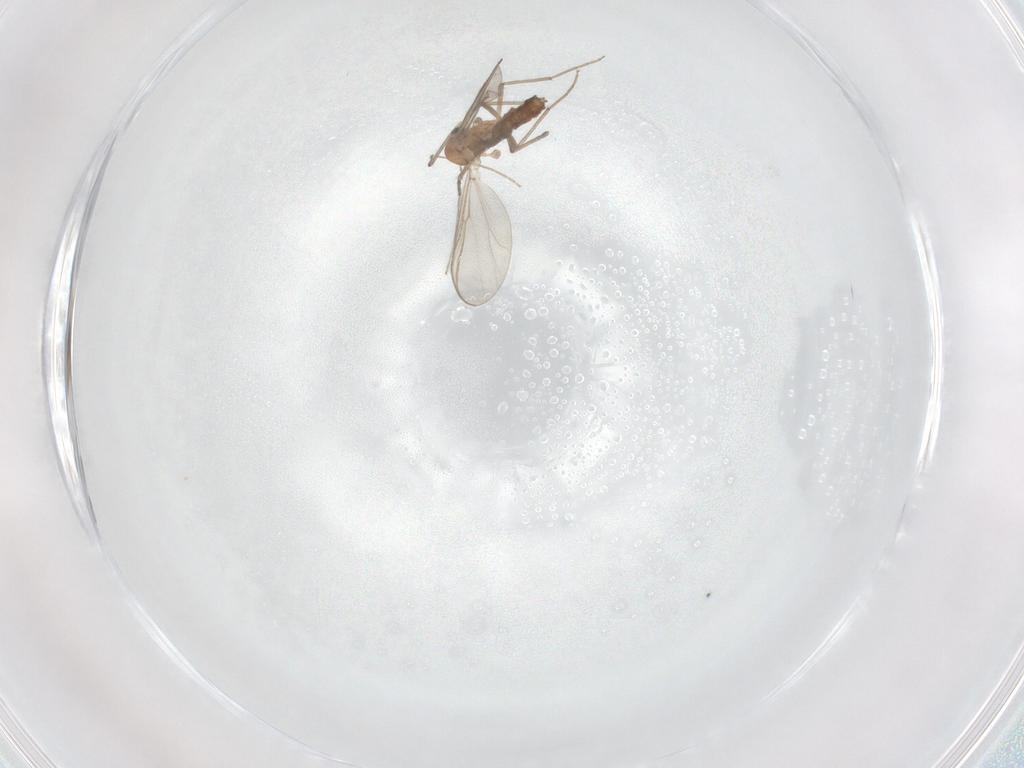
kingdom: Animalia
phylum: Arthropoda
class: Insecta
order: Diptera
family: Chironomidae
